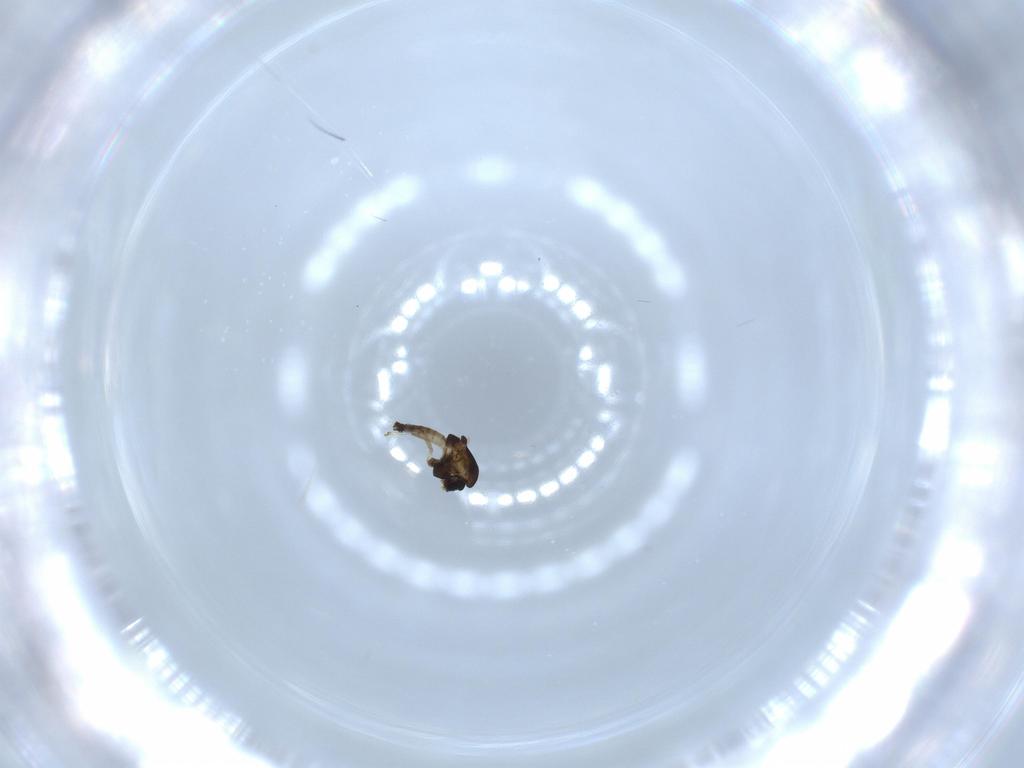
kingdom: Animalia
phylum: Arthropoda
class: Insecta
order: Diptera
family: Chironomidae
